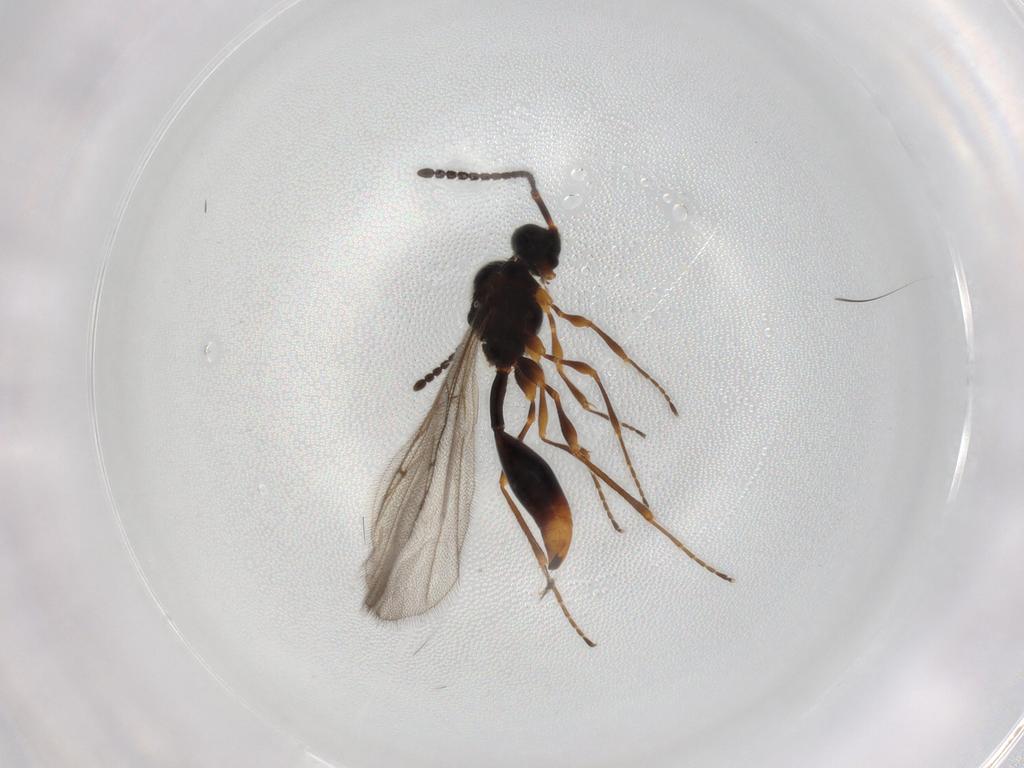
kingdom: Animalia
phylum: Arthropoda
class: Insecta
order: Hymenoptera
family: Diapriidae
